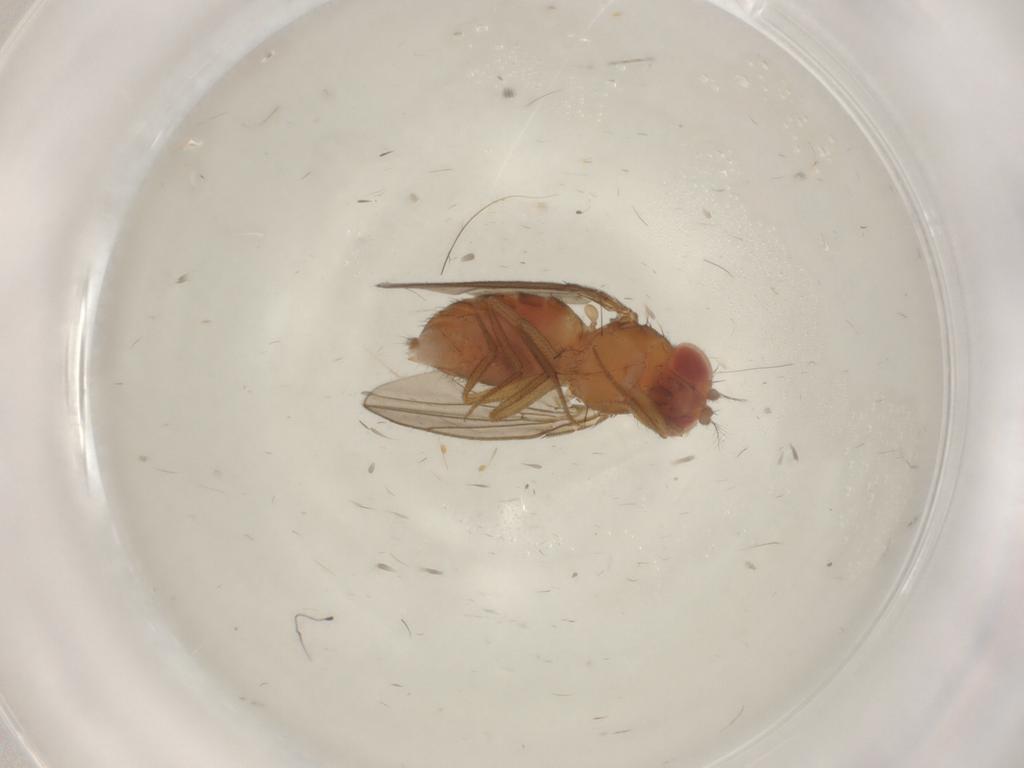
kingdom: Animalia
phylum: Arthropoda
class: Insecta
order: Diptera
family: Drosophilidae
